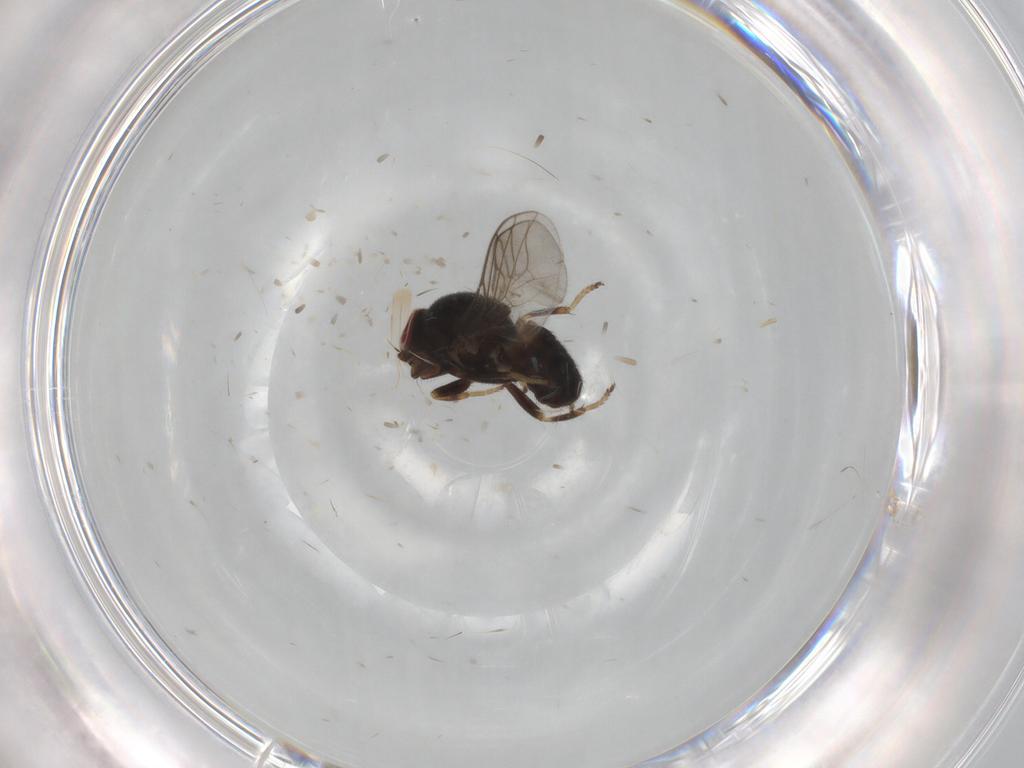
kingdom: Animalia
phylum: Arthropoda
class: Insecta
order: Diptera
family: Chloropidae
